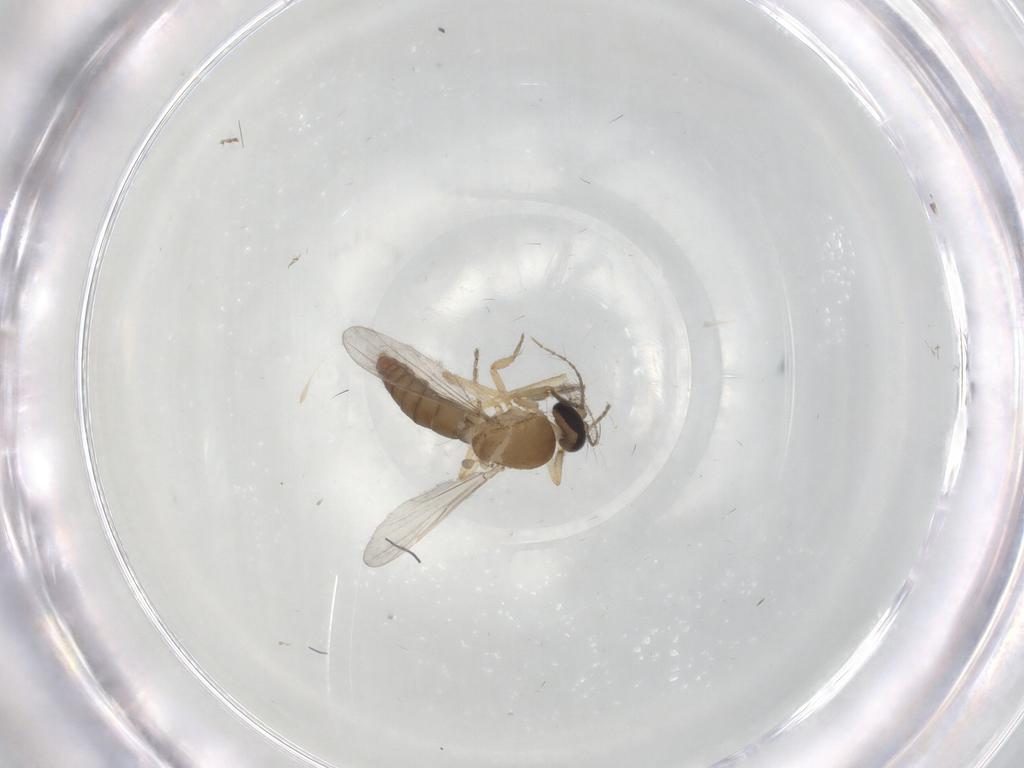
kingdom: Animalia
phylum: Arthropoda
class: Insecta
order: Diptera
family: Ceratopogonidae
